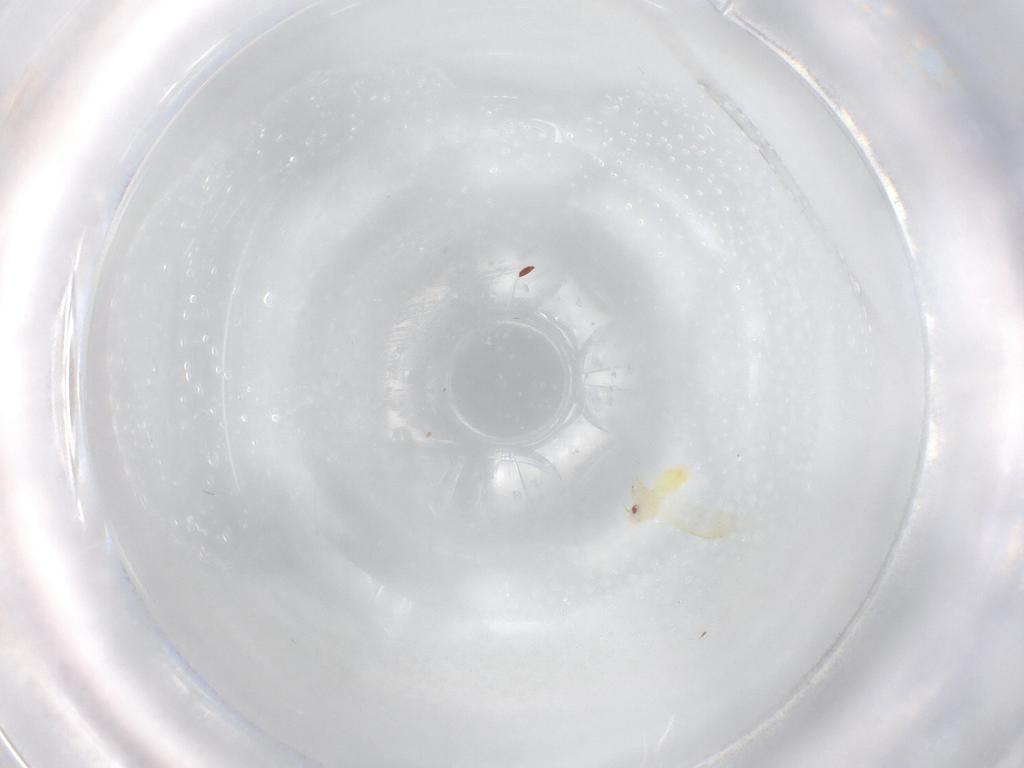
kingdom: Animalia
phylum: Arthropoda
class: Insecta
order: Hemiptera
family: Aleyrodidae
